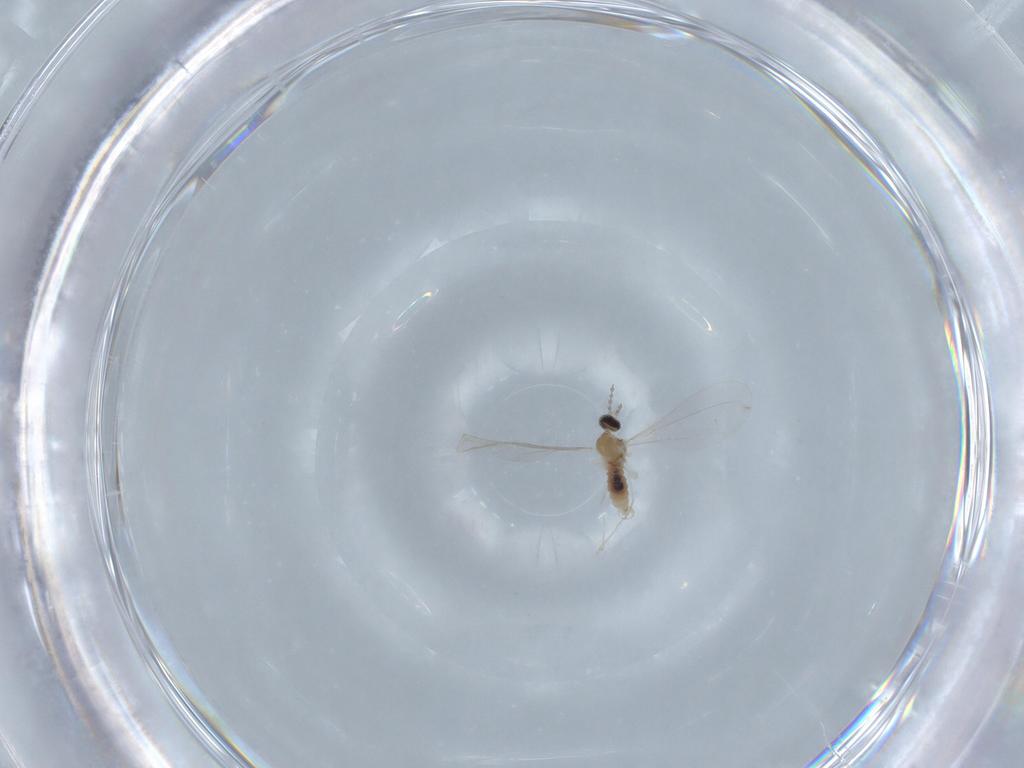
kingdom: Animalia
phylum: Arthropoda
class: Insecta
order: Diptera
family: Cecidomyiidae
